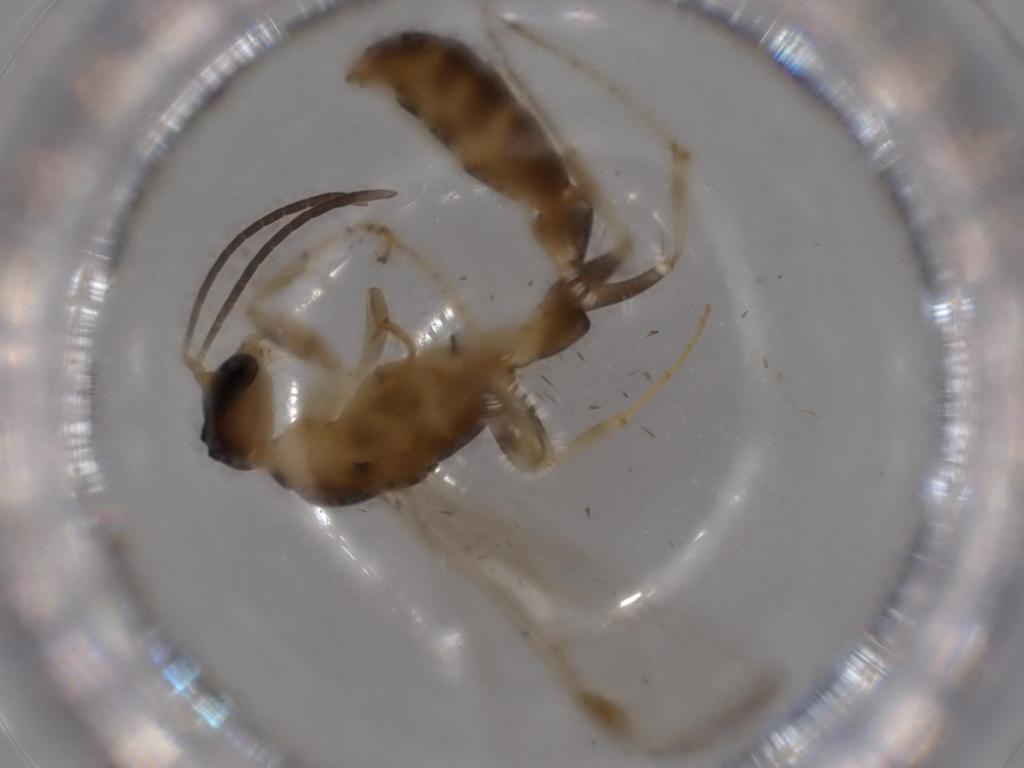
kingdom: Animalia
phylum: Arthropoda
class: Insecta
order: Hymenoptera
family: Formicidae
